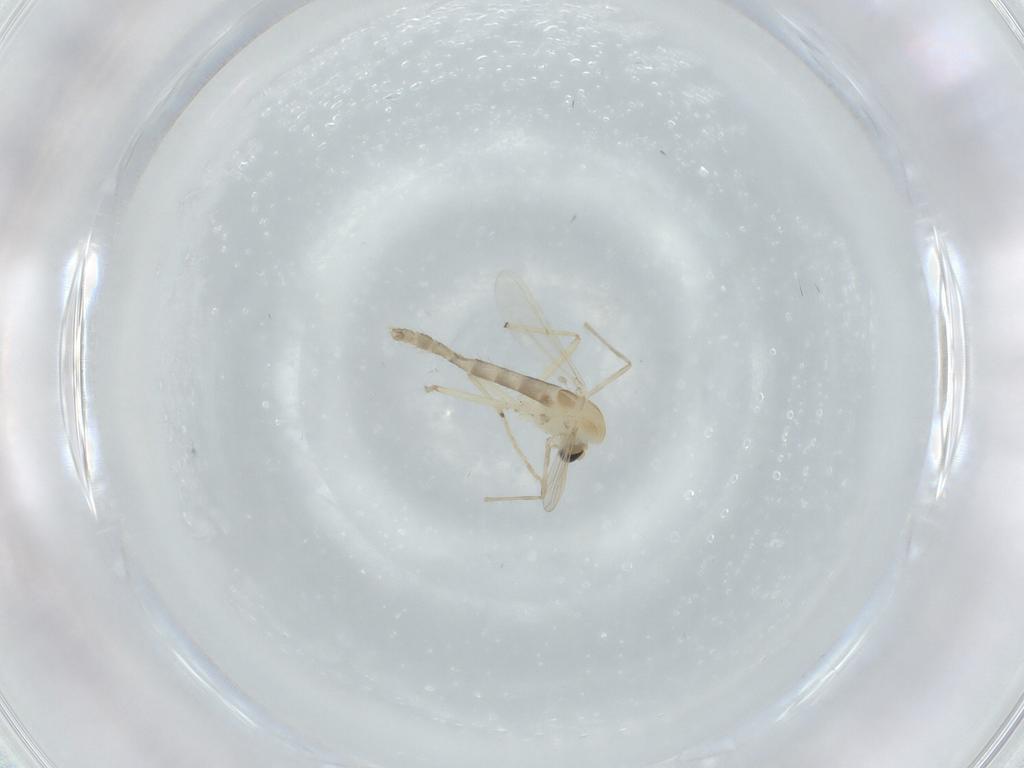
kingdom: Animalia
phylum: Arthropoda
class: Insecta
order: Diptera
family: Chironomidae
